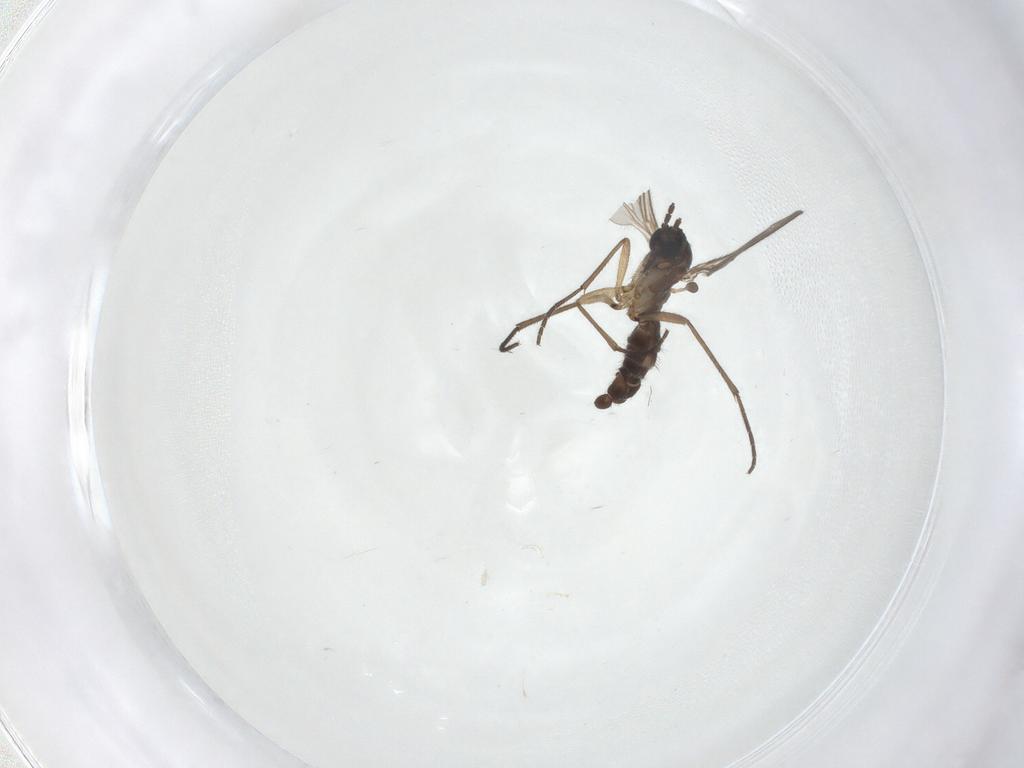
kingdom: Animalia
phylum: Arthropoda
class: Insecta
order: Diptera
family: Sciaridae
